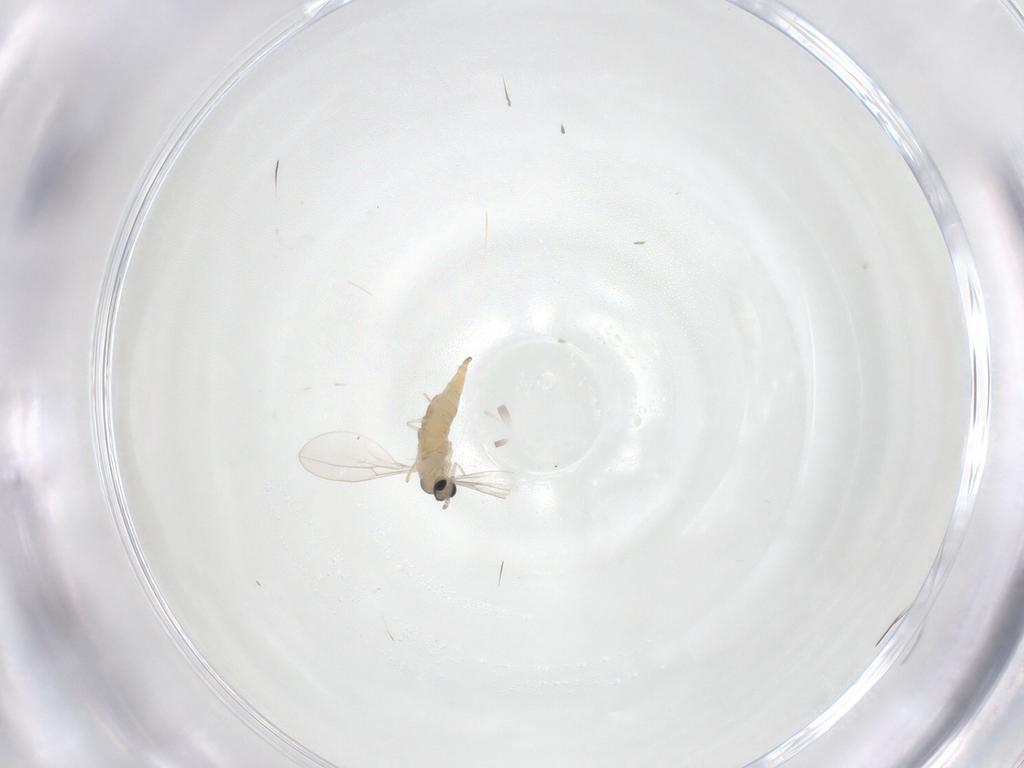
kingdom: Animalia
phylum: Arthropoda
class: Insecta
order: Diptera
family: Cecidomyiidae
